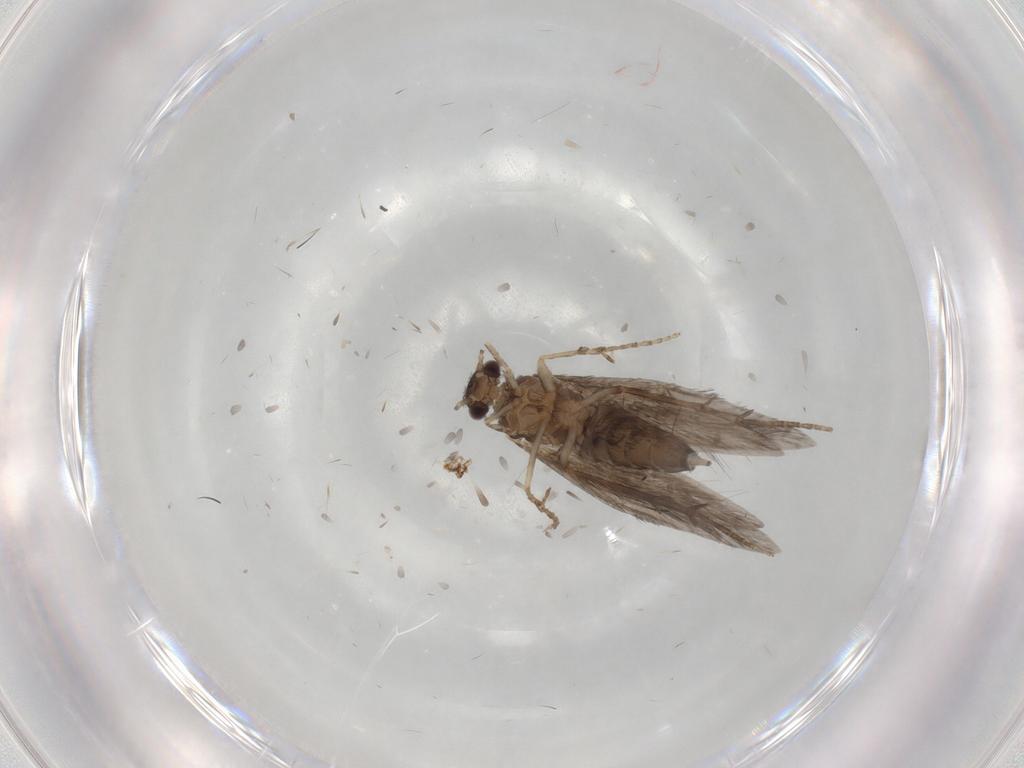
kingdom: Animalia
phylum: Arthropoda
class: Insecta
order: Trichoptera
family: Hydroptilidae
